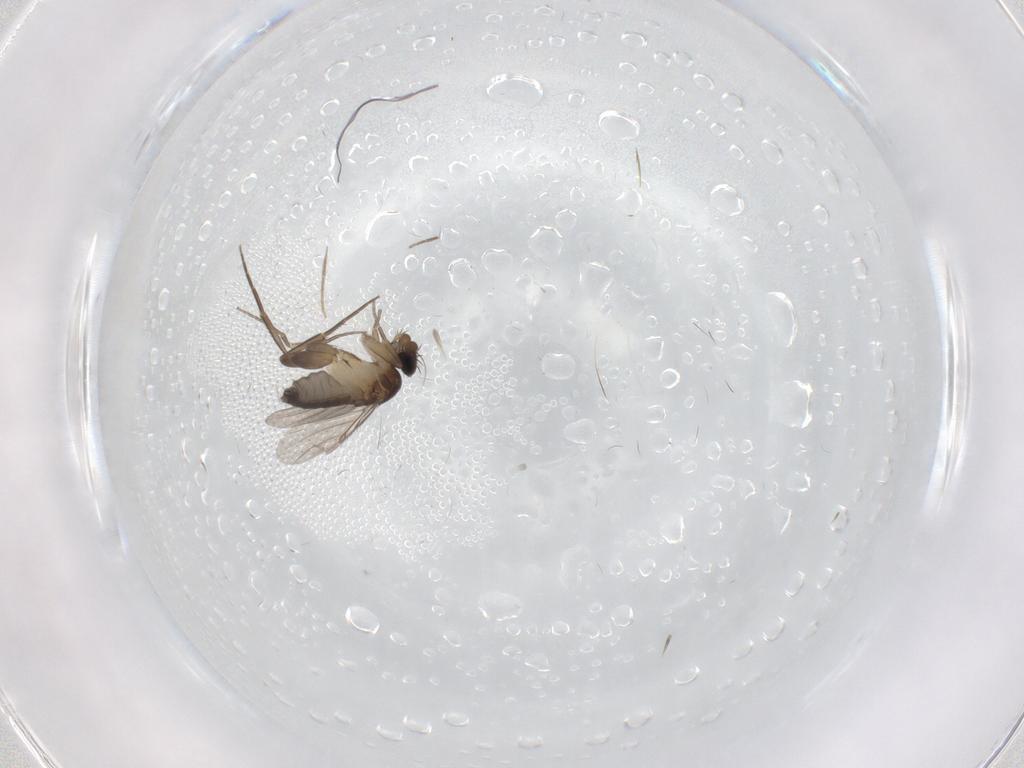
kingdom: Animalia
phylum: Arthropoda
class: Insecta
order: Diptera
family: Phoridae
